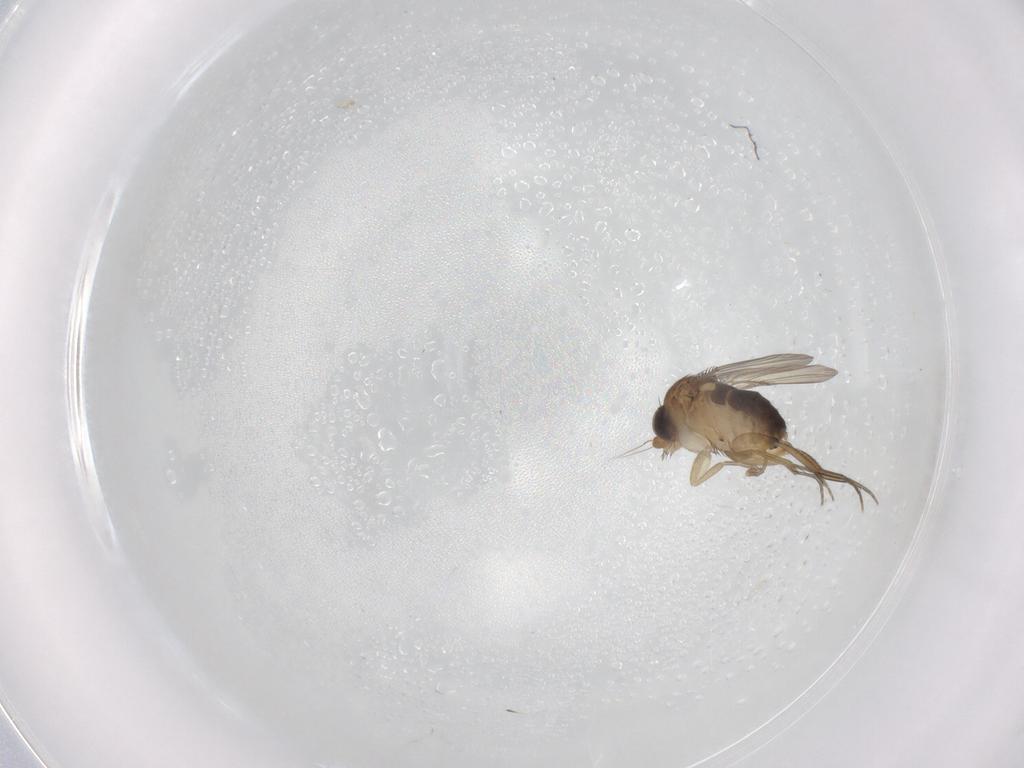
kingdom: Animalia
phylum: Arthropoda
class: Insecta
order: Diptera
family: Phoridae
